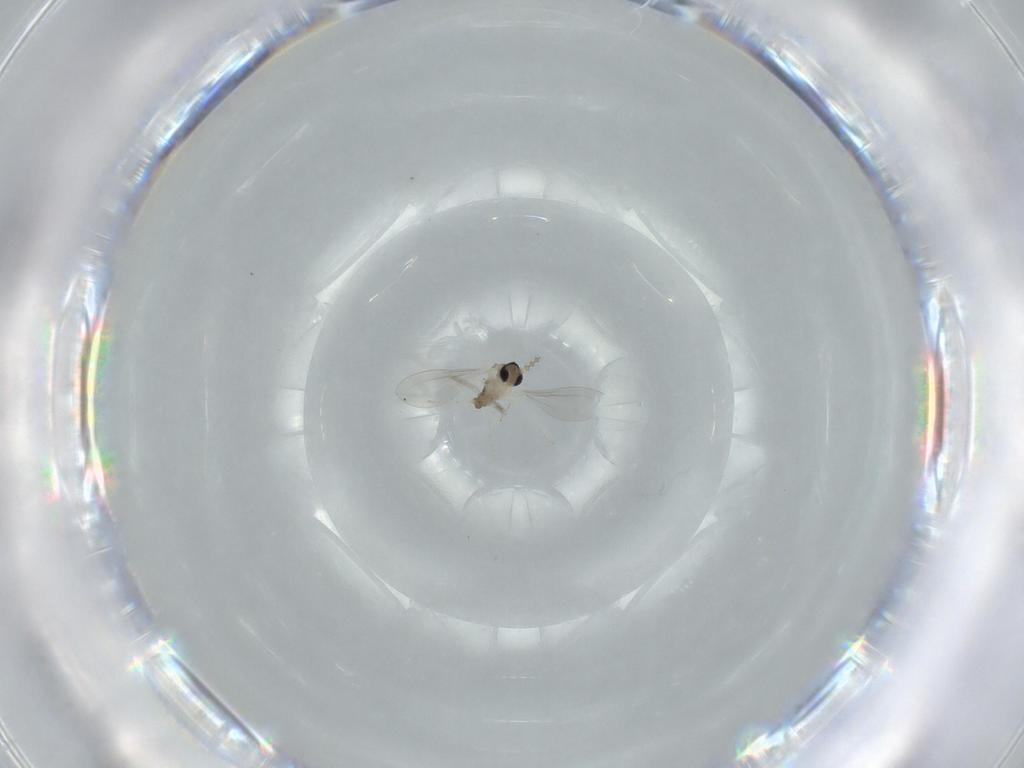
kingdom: Animalia
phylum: Arthropoda
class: Insecta
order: Diptera
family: Cecidomyiidae
